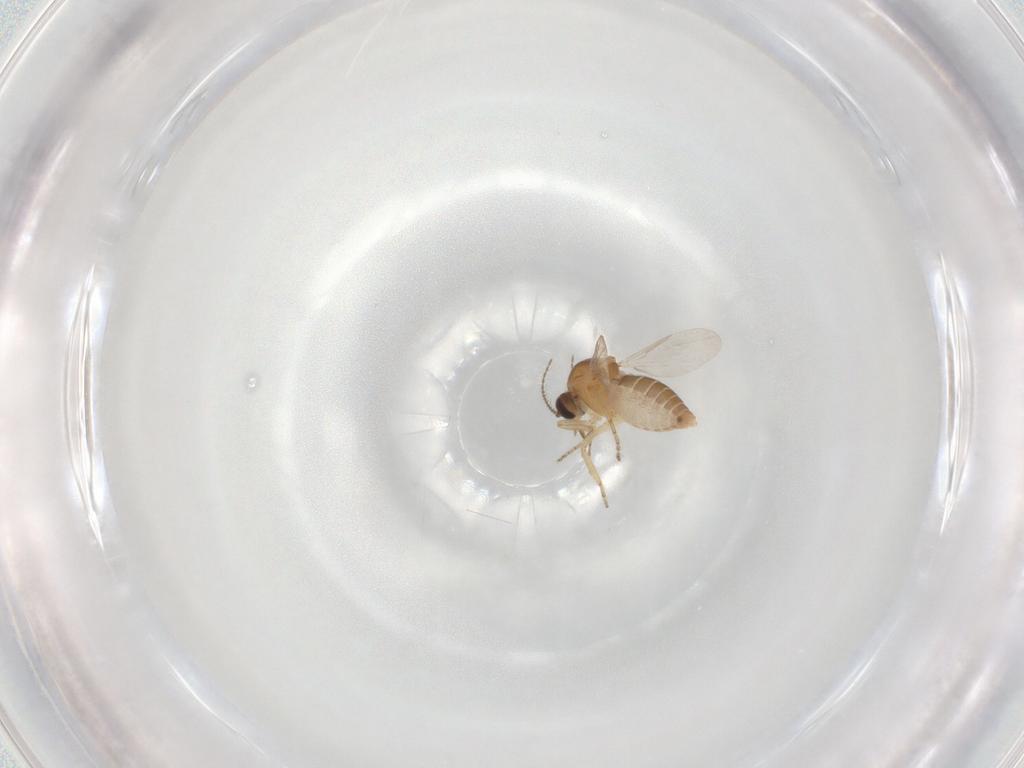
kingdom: Animalia
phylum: Arthropoda
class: Insecta
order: Diptera
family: Ceratopogonidae
